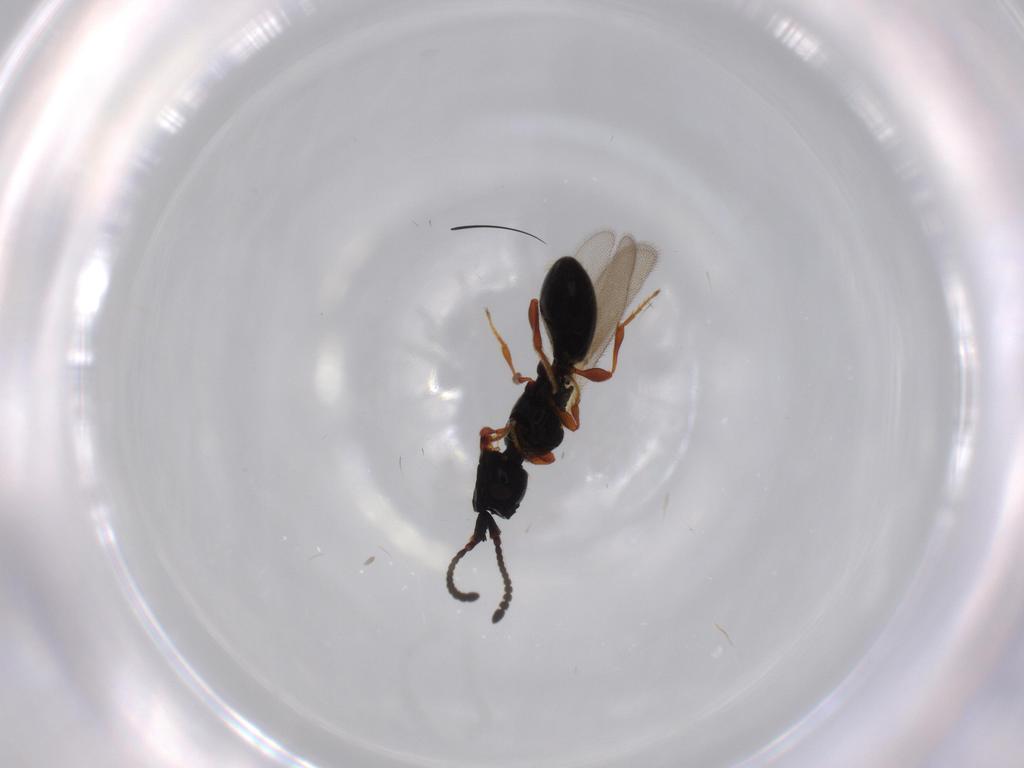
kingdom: Animalia
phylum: Arthropoda
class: Insecta
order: Hymenoptera
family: Diapriidae
